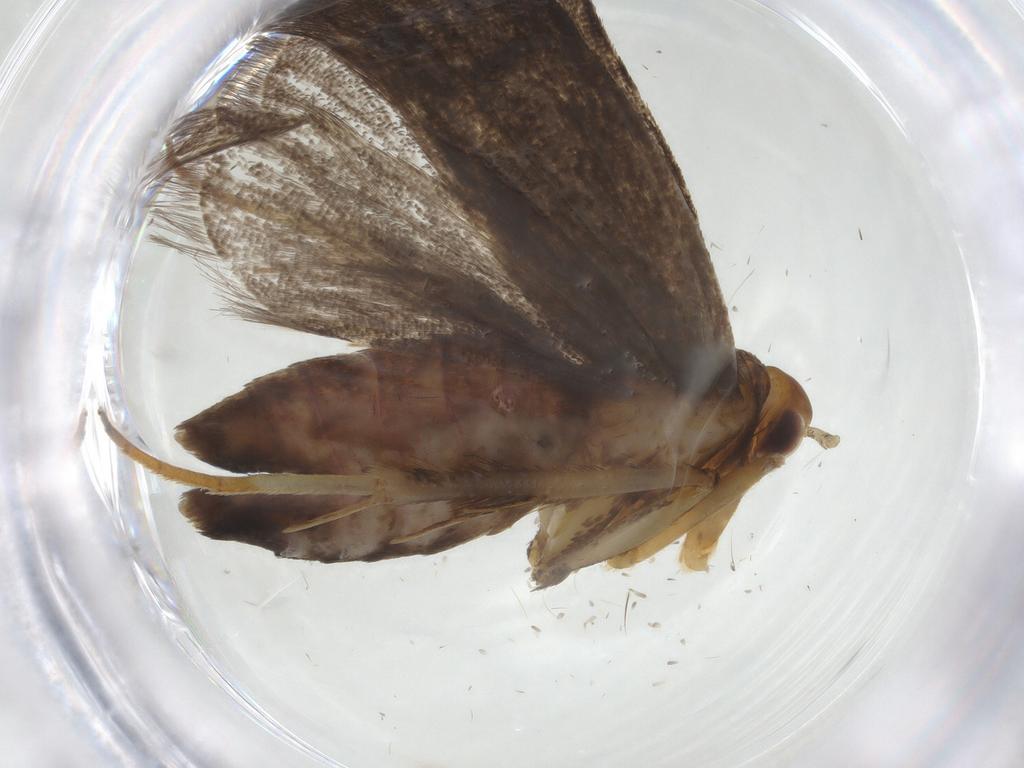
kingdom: Animalia
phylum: Arthropoda
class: Insecta
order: Lepidoptera
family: Lecithoceridae
